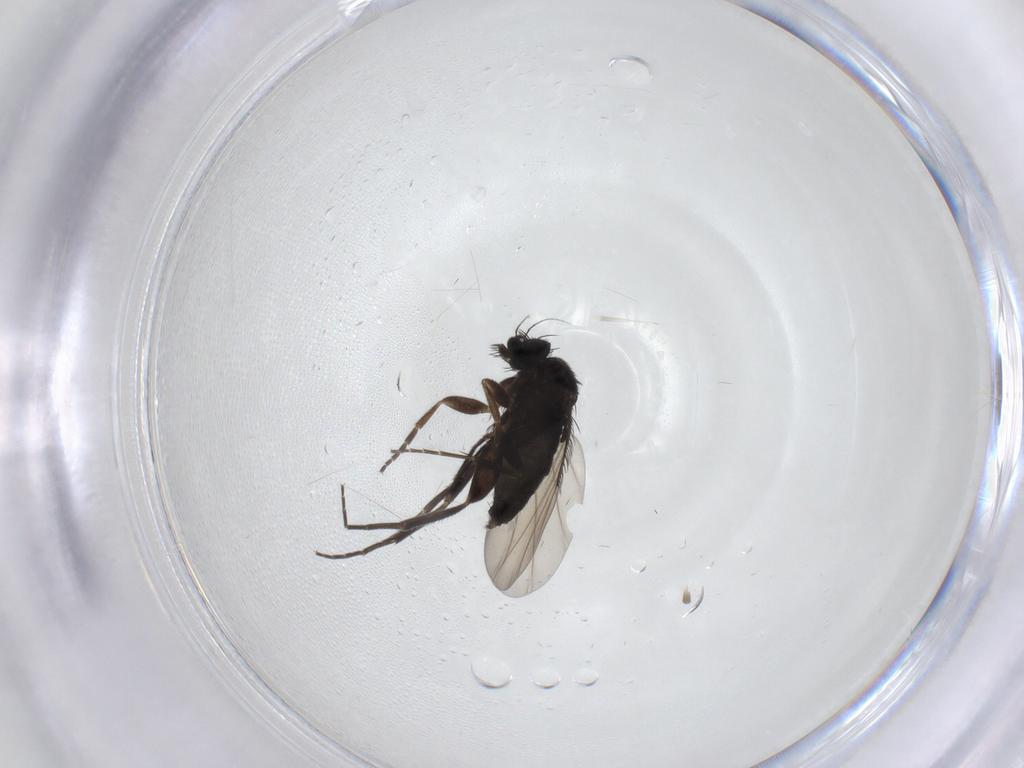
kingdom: Animalia
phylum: Arthropoda
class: Insecta
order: Diptera
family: Phoridae
